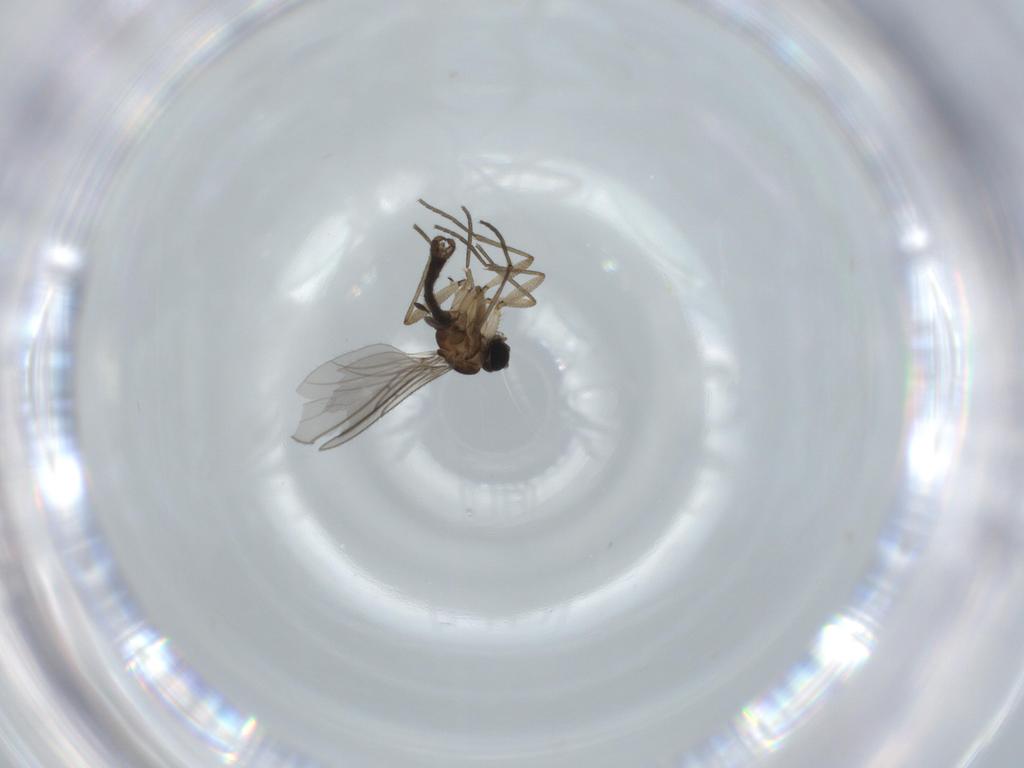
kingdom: Animalia
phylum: Arthropoda
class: Insecta
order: Diptera
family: Sciaridae
